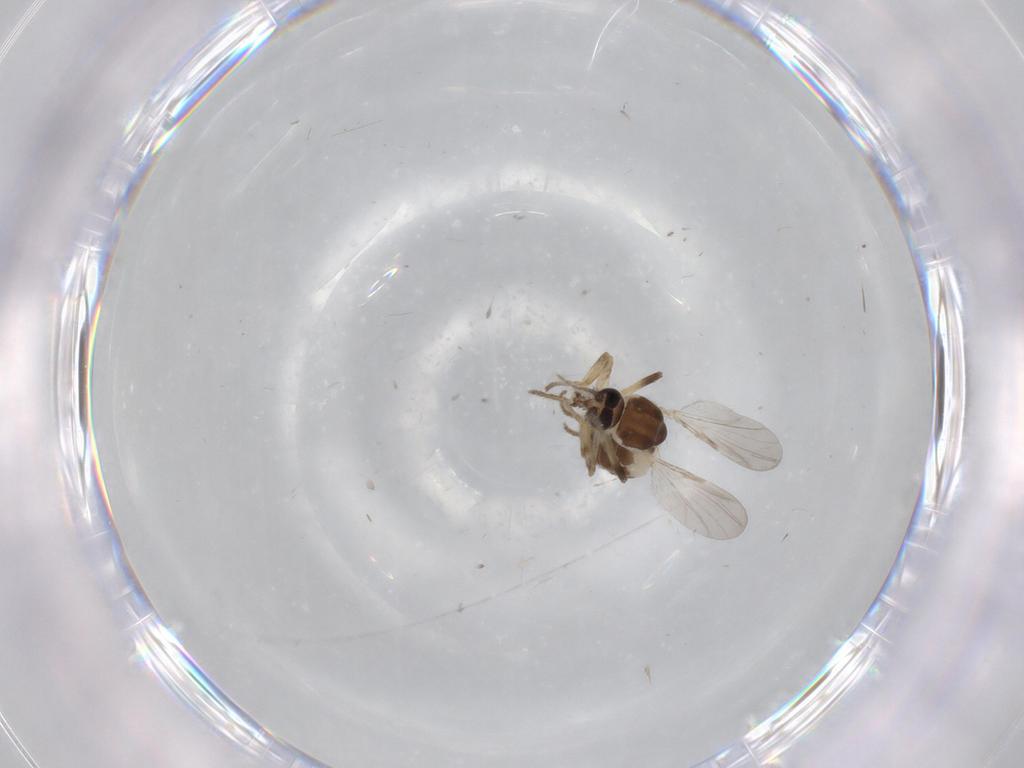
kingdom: Animalia
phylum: Arthropoda
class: Insecta
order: Diptera
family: Ceratopogonidae
